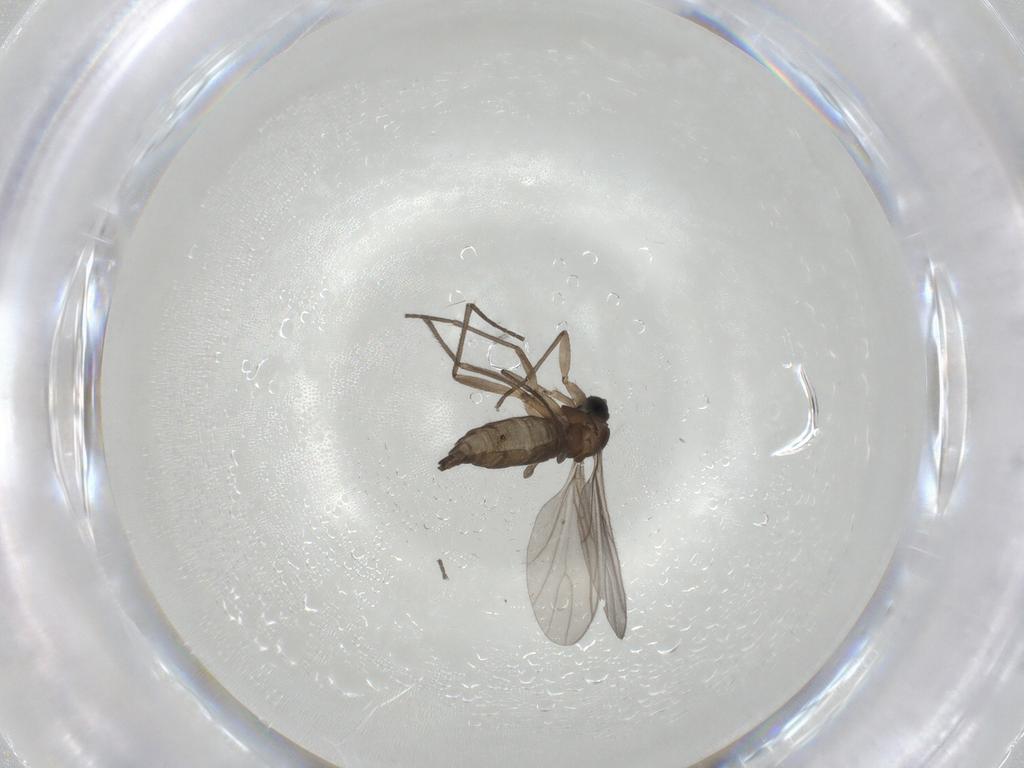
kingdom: Animalia
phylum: Arthropoda
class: Insecta
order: Diptera
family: Sciaridae
